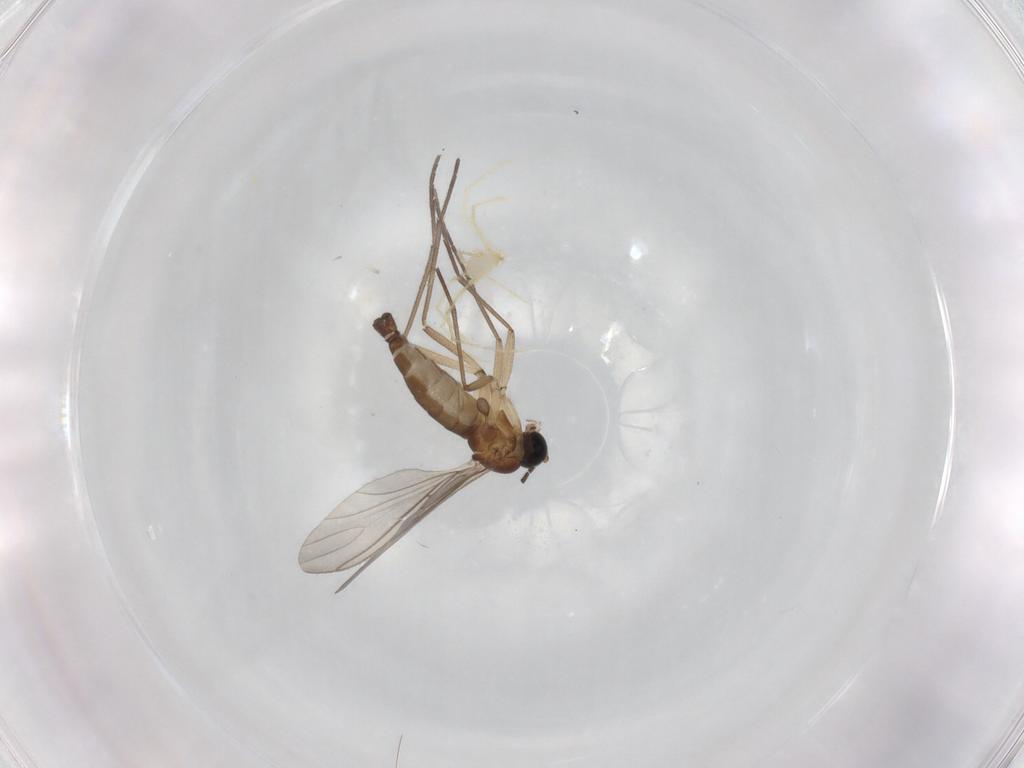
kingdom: Animalia
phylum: Arthropoda
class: Insecta
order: Diptera
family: Sciaridae
